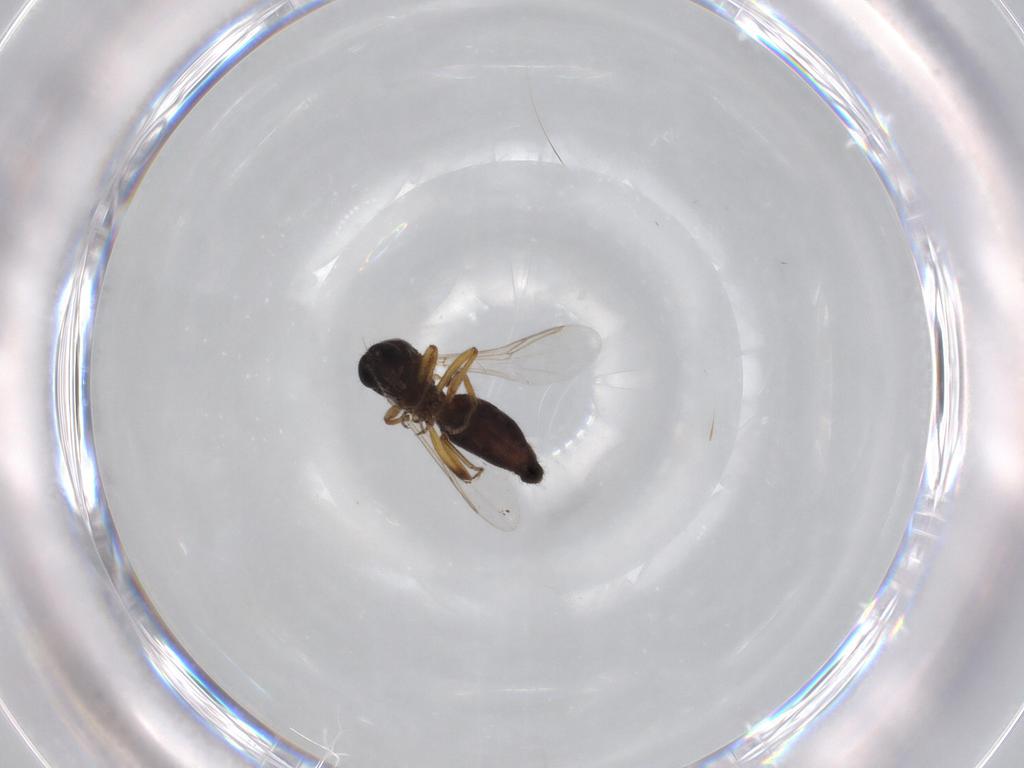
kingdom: Animalia
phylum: Arthropoda
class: Insecta
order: Diptera
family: Ceratopogonidae
